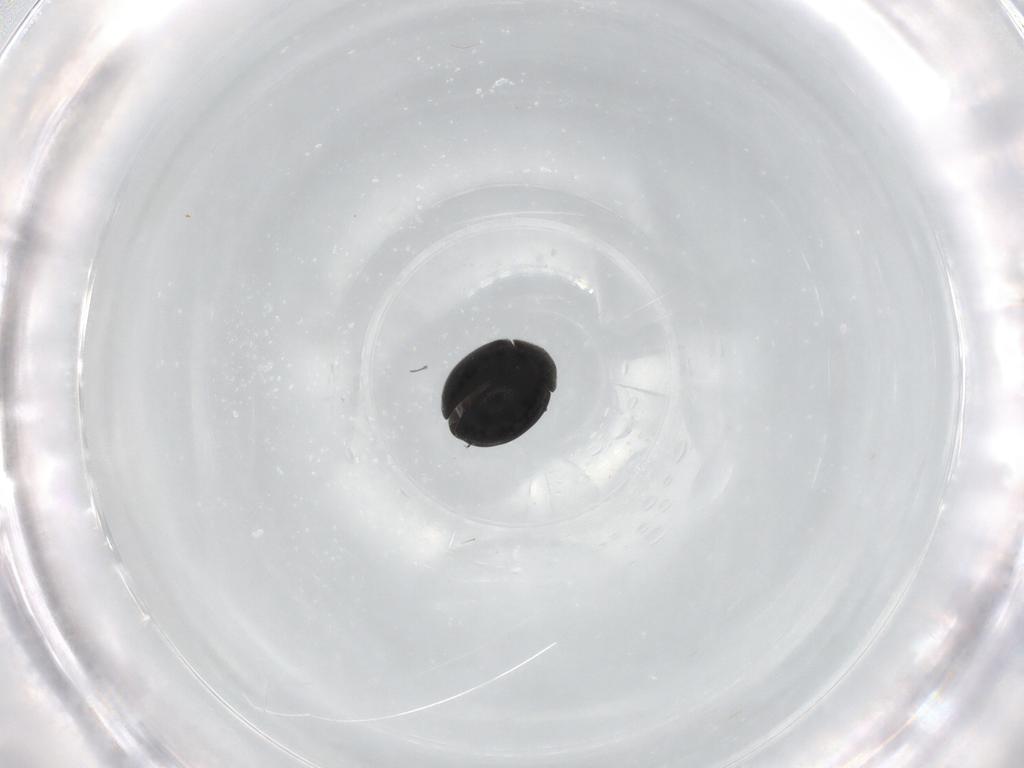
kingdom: Animalia
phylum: Arthropoda
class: Insecta
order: Coleoptera
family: Coccinellidae
